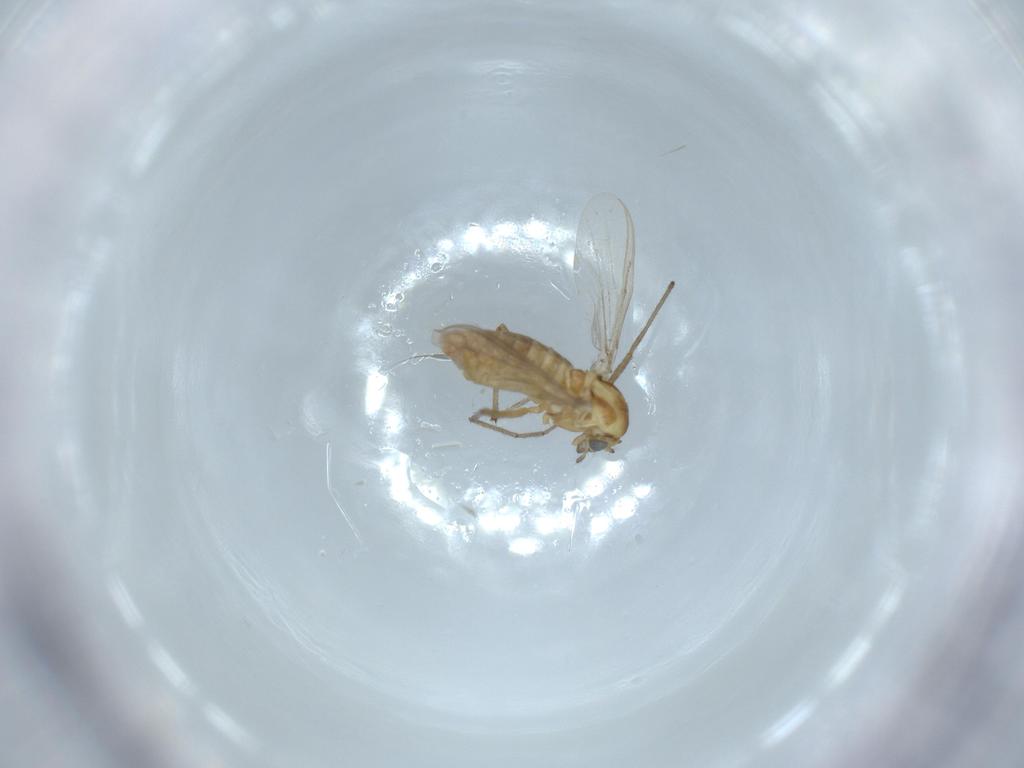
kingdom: Animalia
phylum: Arthropoda
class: Insecta
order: Diptera
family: Chironomidae
